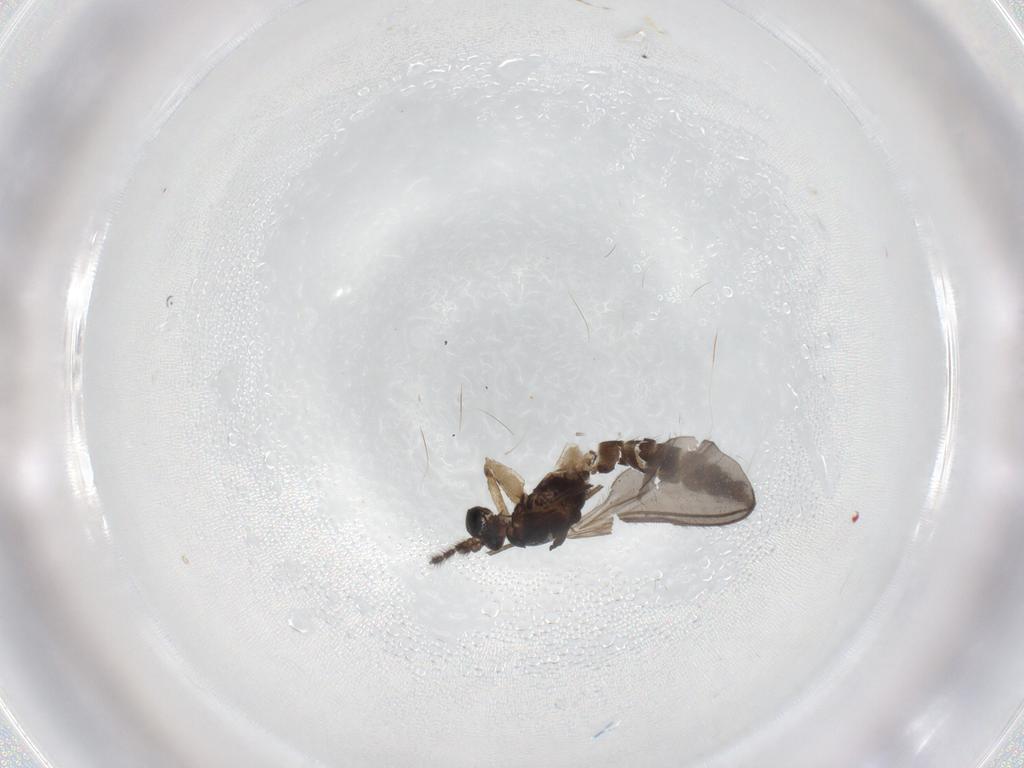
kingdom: Animalia
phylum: Arthropoda
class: Insecta
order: Diptera
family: Sciaridae
